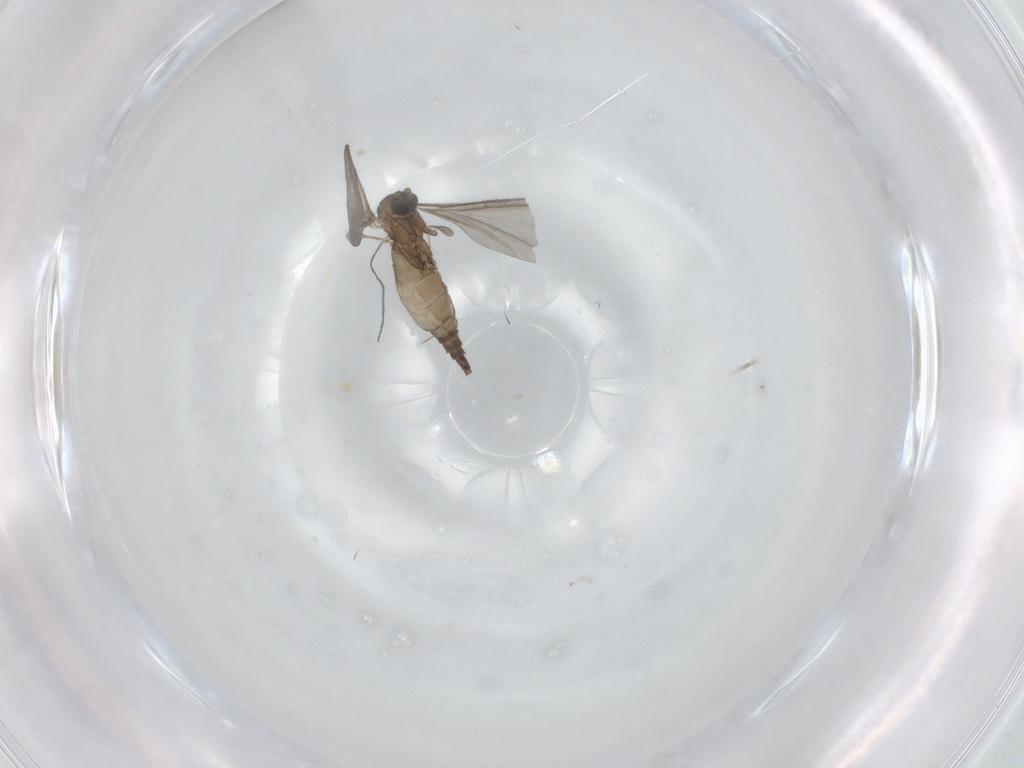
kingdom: Animalia
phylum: Arthropoda
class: Insecta
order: Diptera
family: Sciaridae
